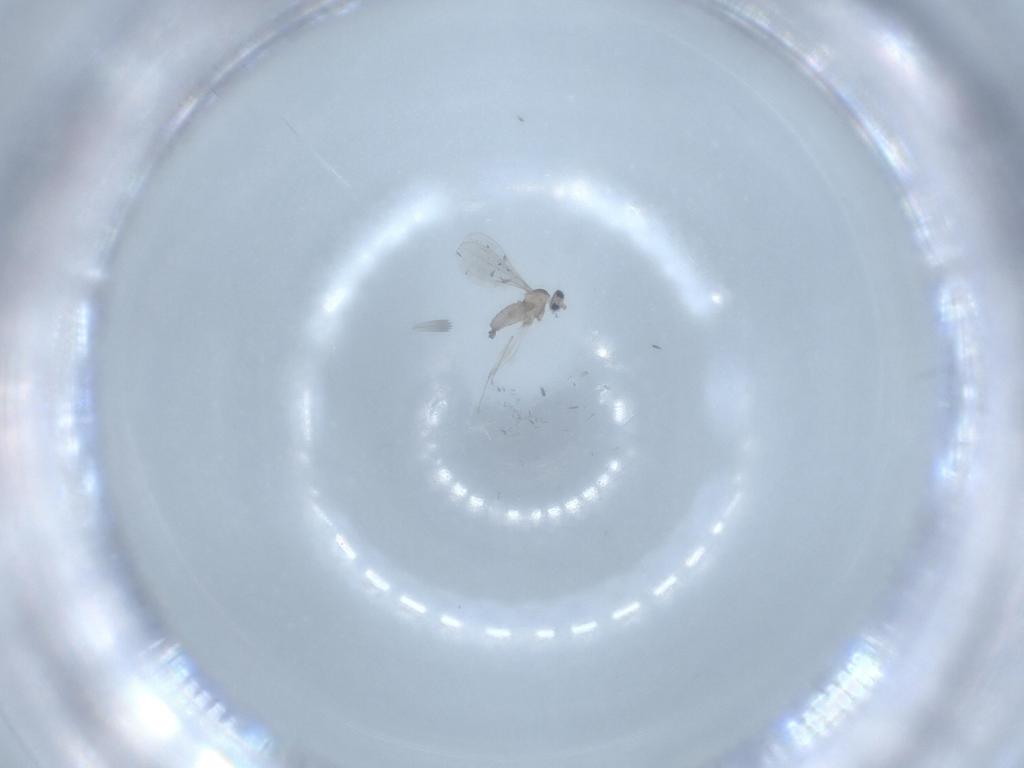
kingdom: Animalia
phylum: Arthropoda
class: Insecta
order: Diptera
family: Cecidomyiidae
